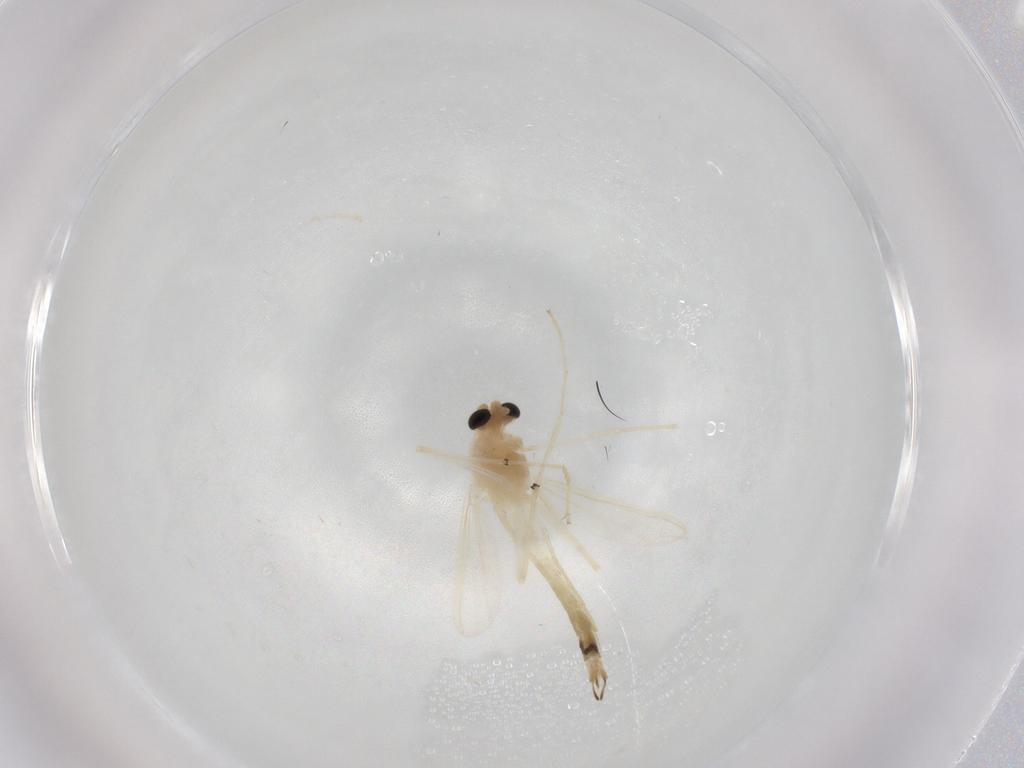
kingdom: Animalia
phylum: Arthropoda
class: Insecta
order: Diptera
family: Chironomidae
